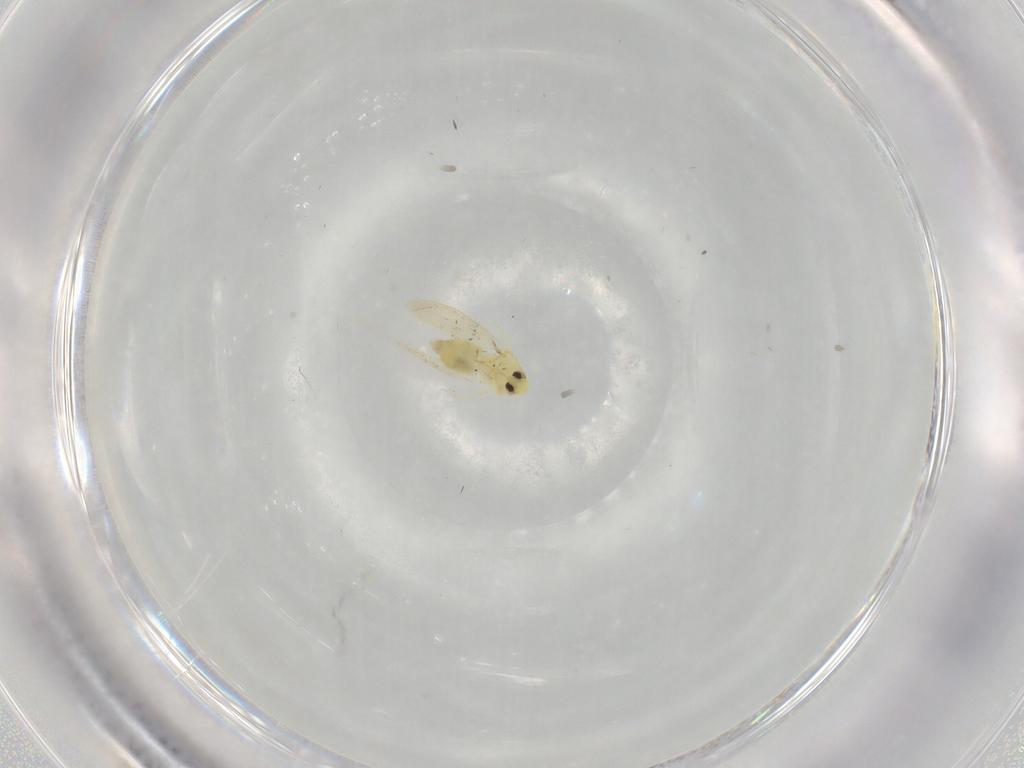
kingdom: Animalia
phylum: Arthropoda
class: Insecta
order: Hemiptera
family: Aleyrodidae
